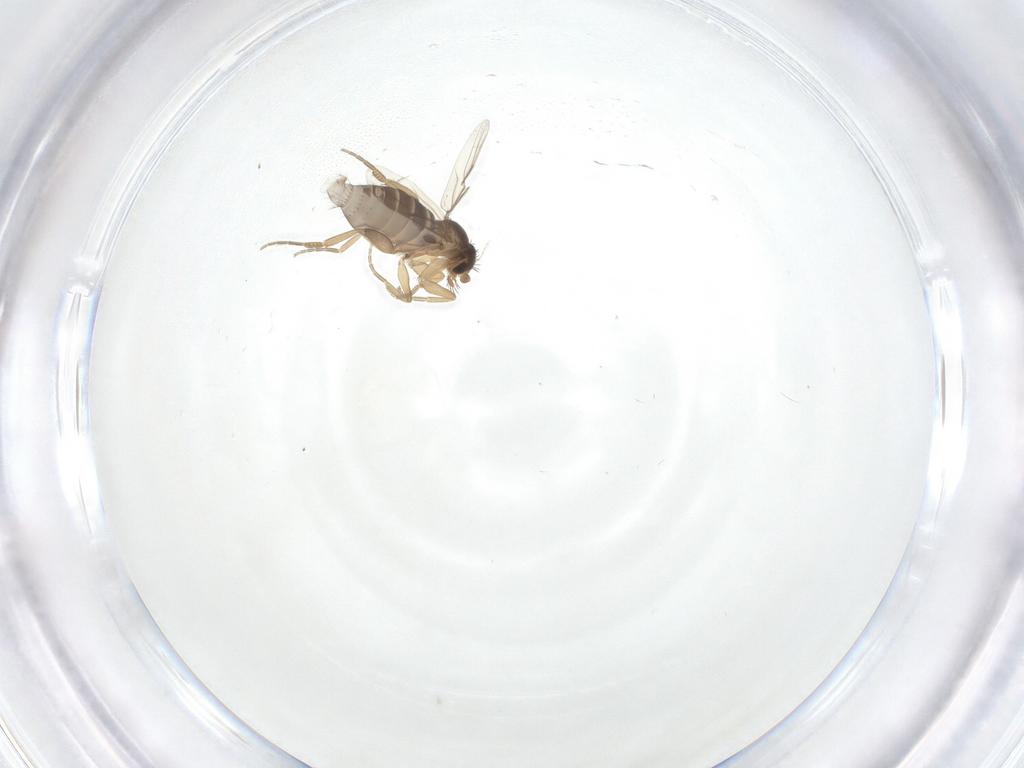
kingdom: Animalia
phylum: Arthropoda
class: Insecta
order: Diptera
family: Phoridae
